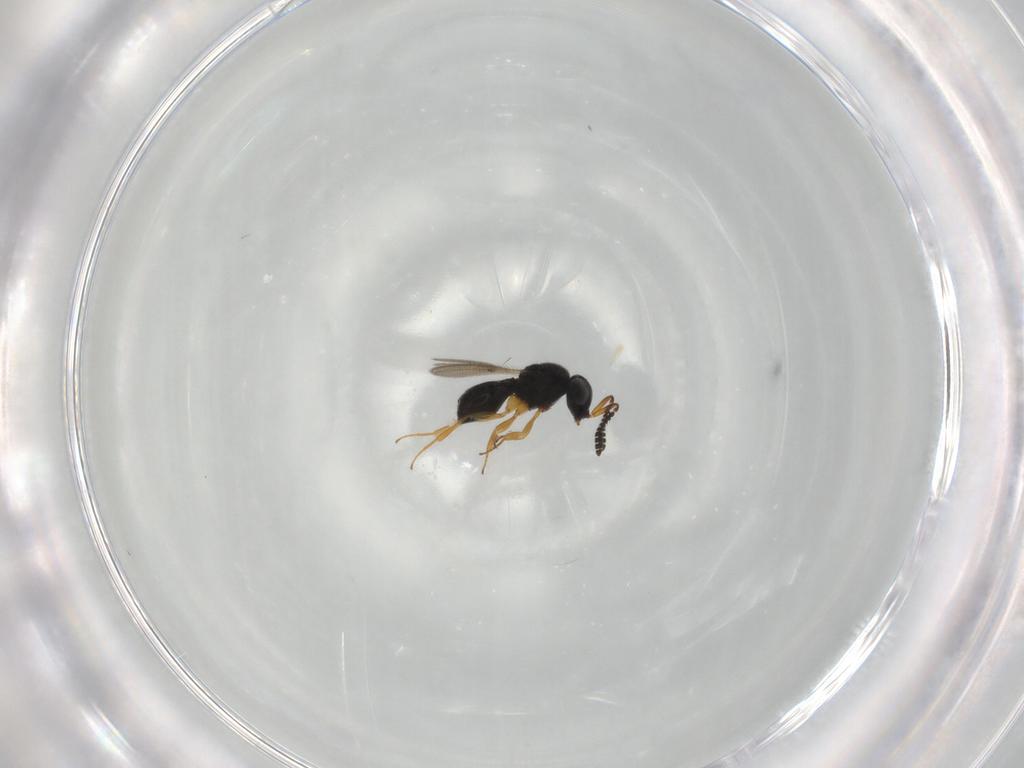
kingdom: Animalia
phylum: Arthropoda
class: Insecta
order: Hymenoptera
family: Scelionidae
